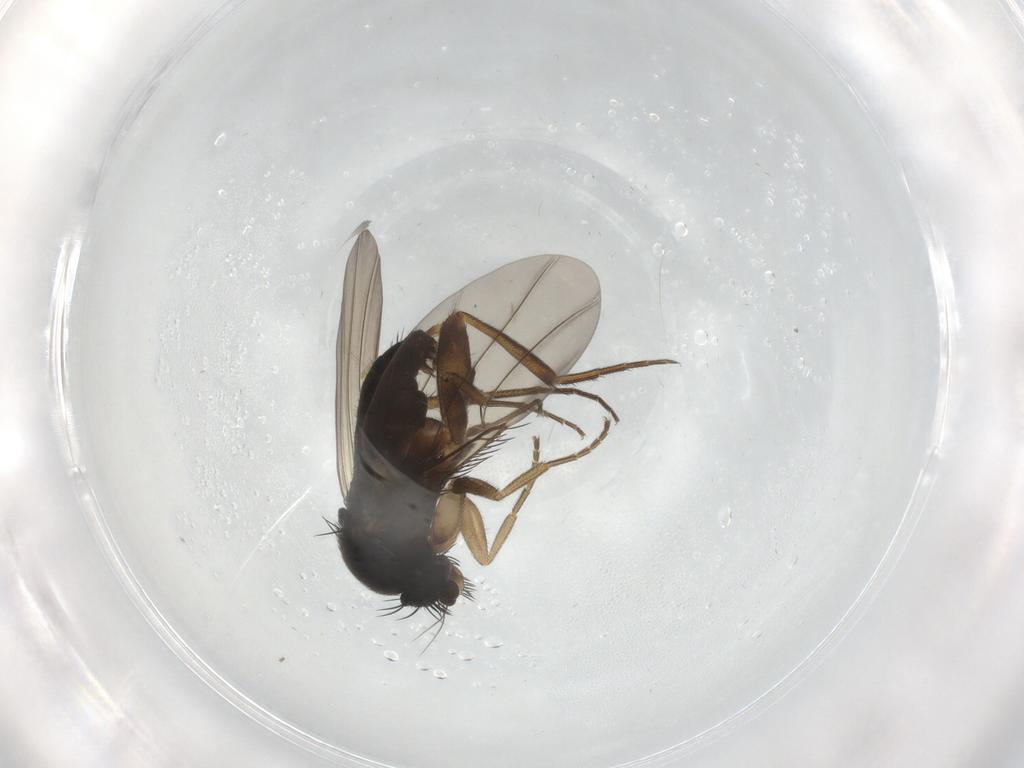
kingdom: Animalia
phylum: Arthropoda
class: Insecta
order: Diptera
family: Phoridae
